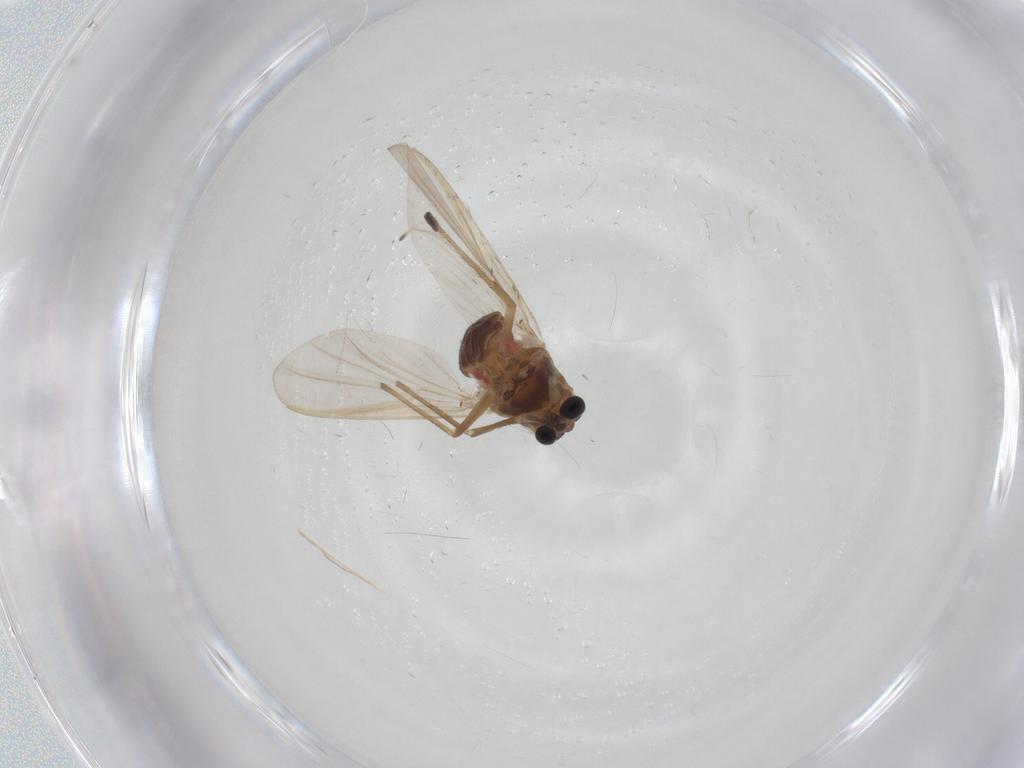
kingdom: Animalia
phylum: Arthropoda
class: Insecta
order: Diptera
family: Chironomidae
